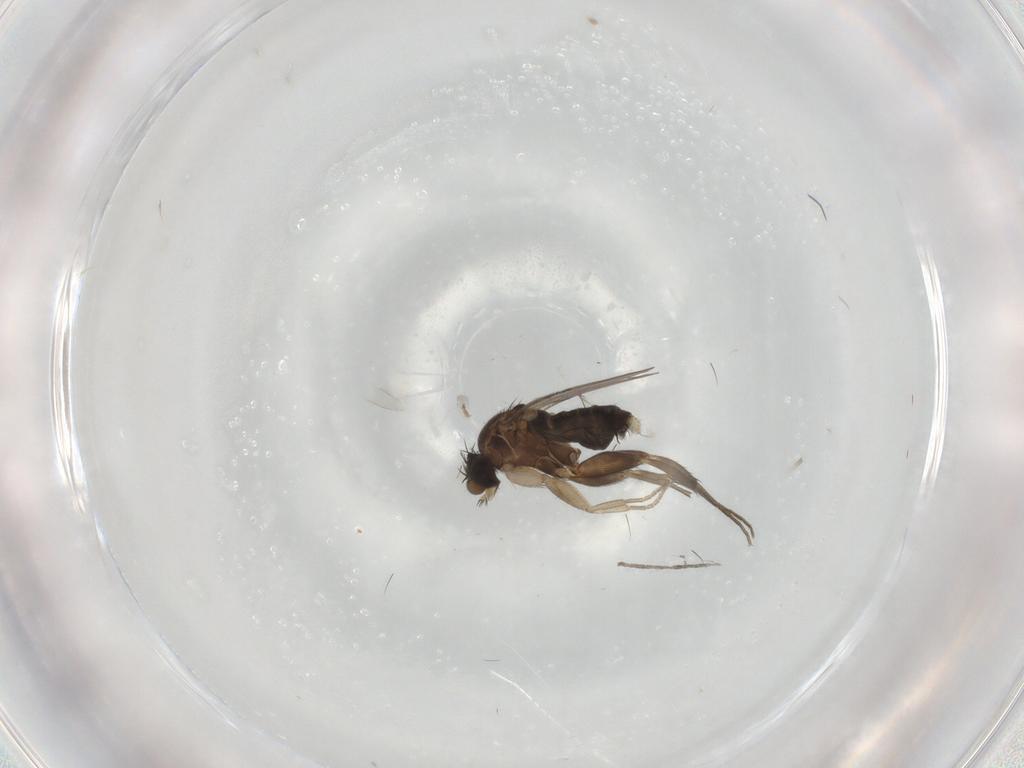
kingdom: Animalia
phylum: Arthropoda
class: Insecta
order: Diptera
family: Phoridae
